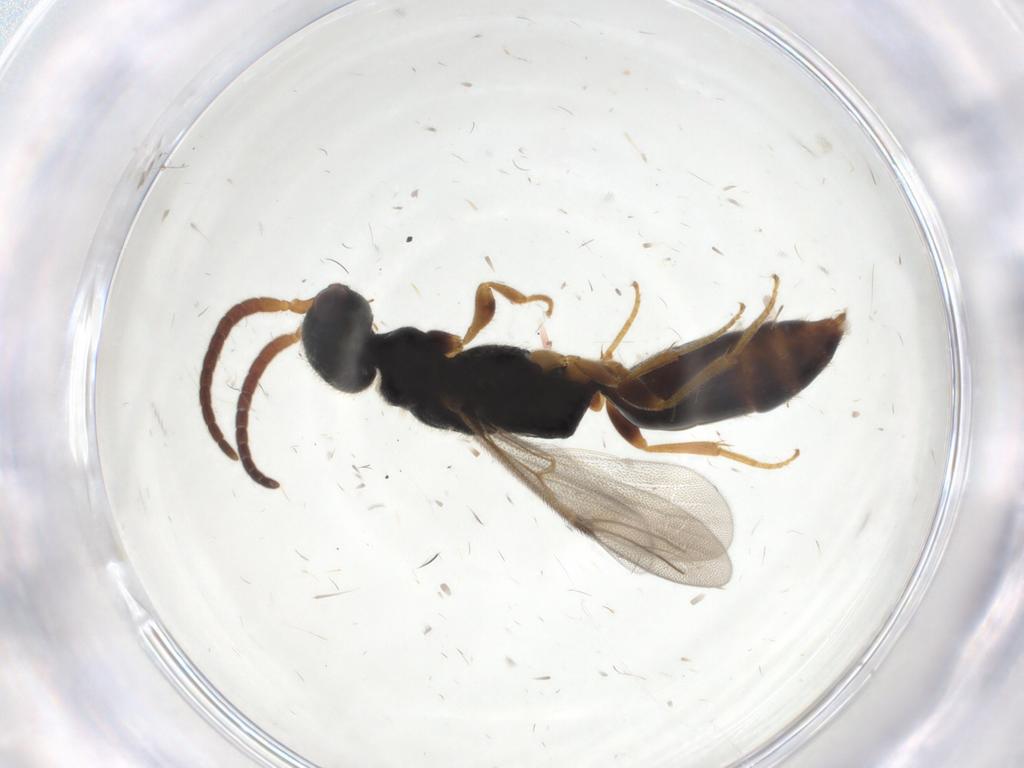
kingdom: Animalia
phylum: Arthropoda
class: Insecta
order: Hymenoptera
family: Bethylidae
